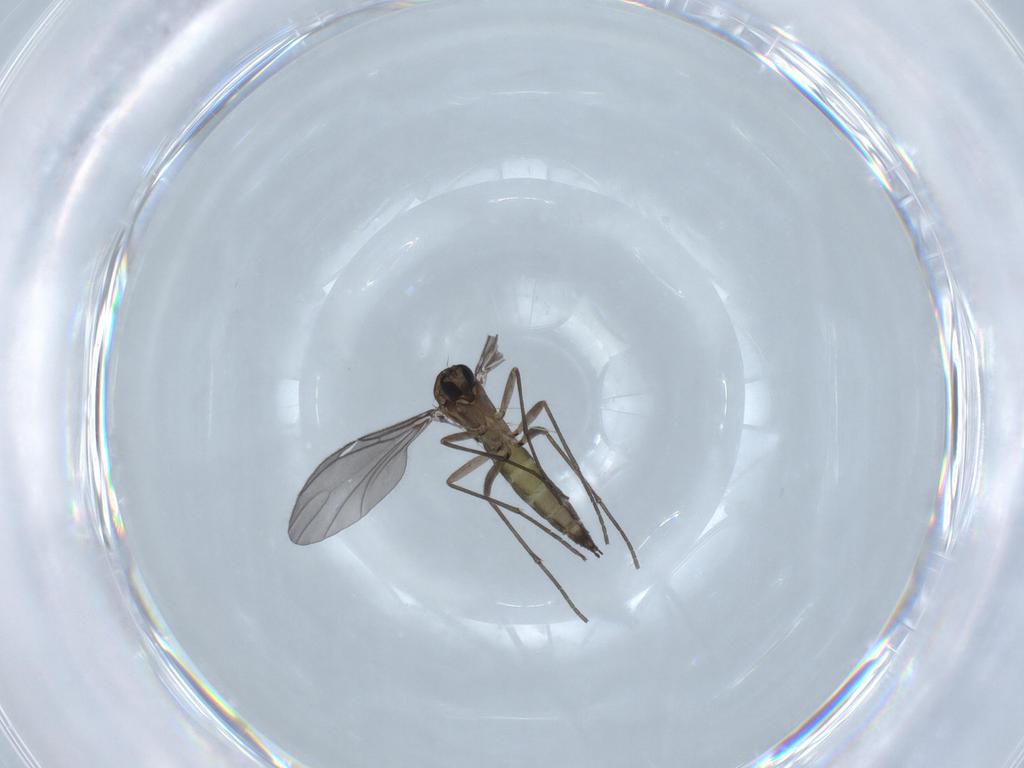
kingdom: Animalia
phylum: Arthropoda
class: Insecta
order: Diptera
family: Sciaridae
